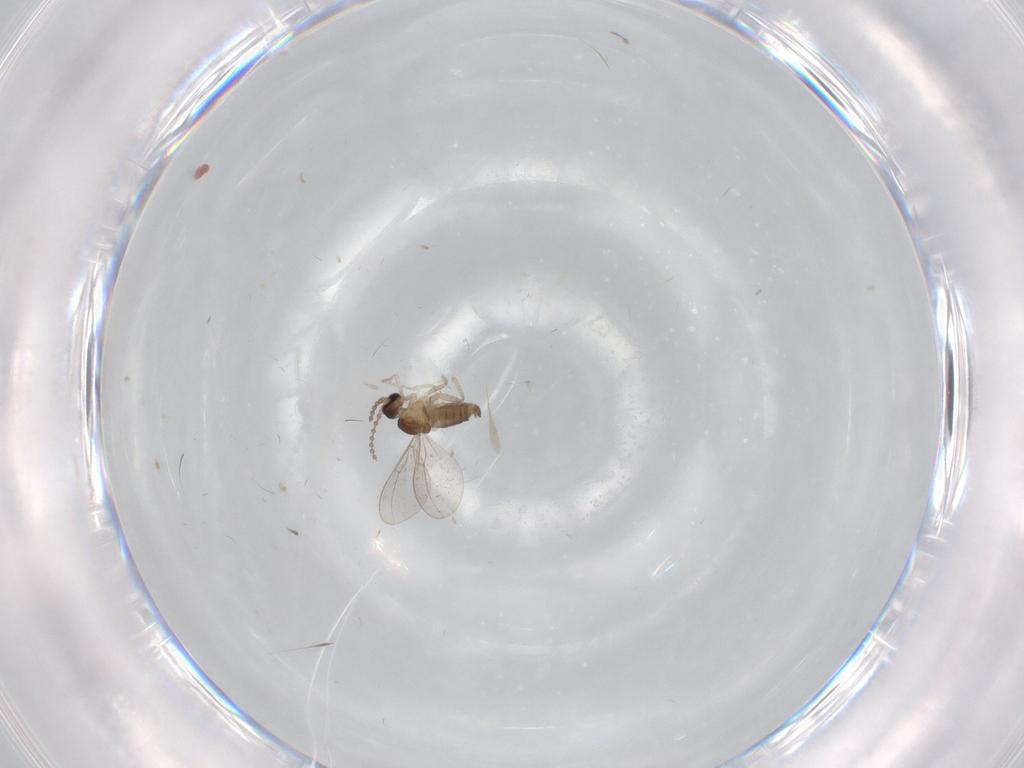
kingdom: Animalia
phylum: Arthropoda
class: Insecta
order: Diptera
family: Cecidomyiidae
